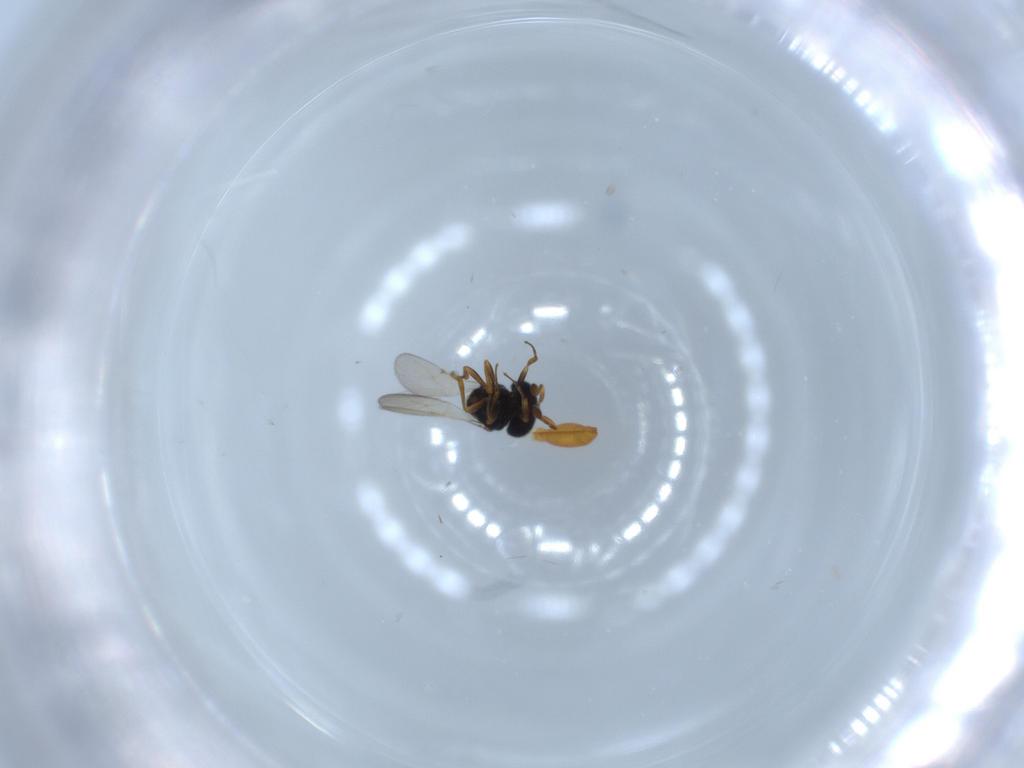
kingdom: Animalia
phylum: Arthropoda
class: Insecta
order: Hymenoptera
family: Scelionidae
